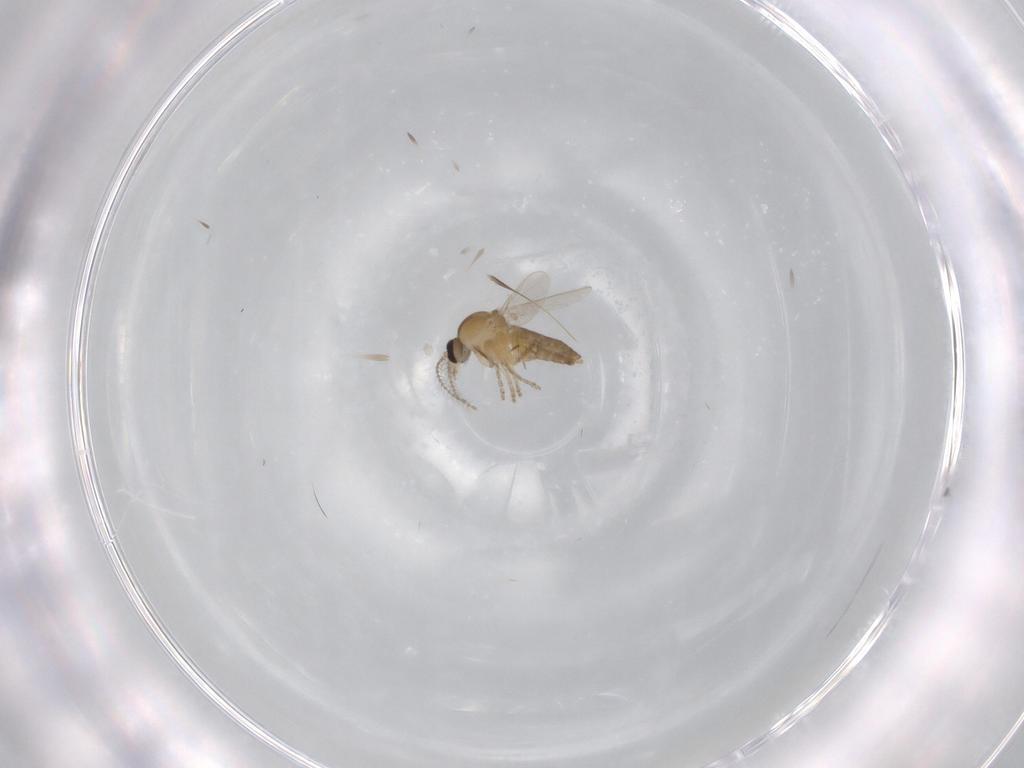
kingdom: Animalia
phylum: Arthropoda
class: Insecta
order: Diptera
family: Ceratopogonidae
